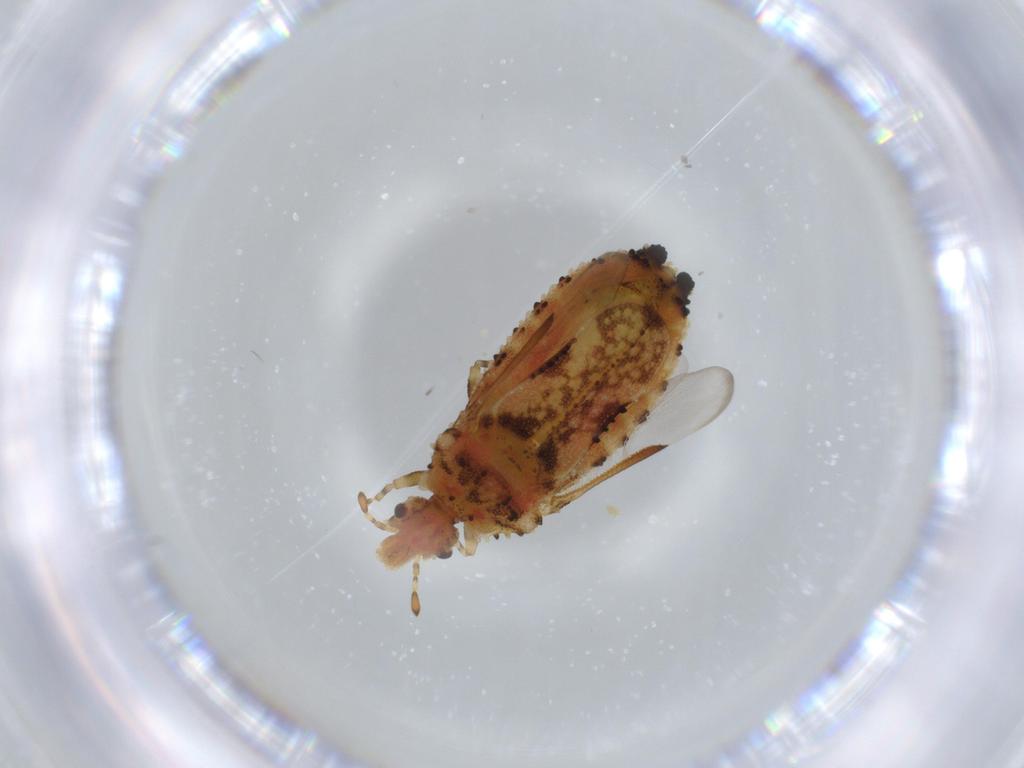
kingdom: Animalia
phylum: Arthropoda
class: Insecta
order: Hemiptera
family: Aradidae
